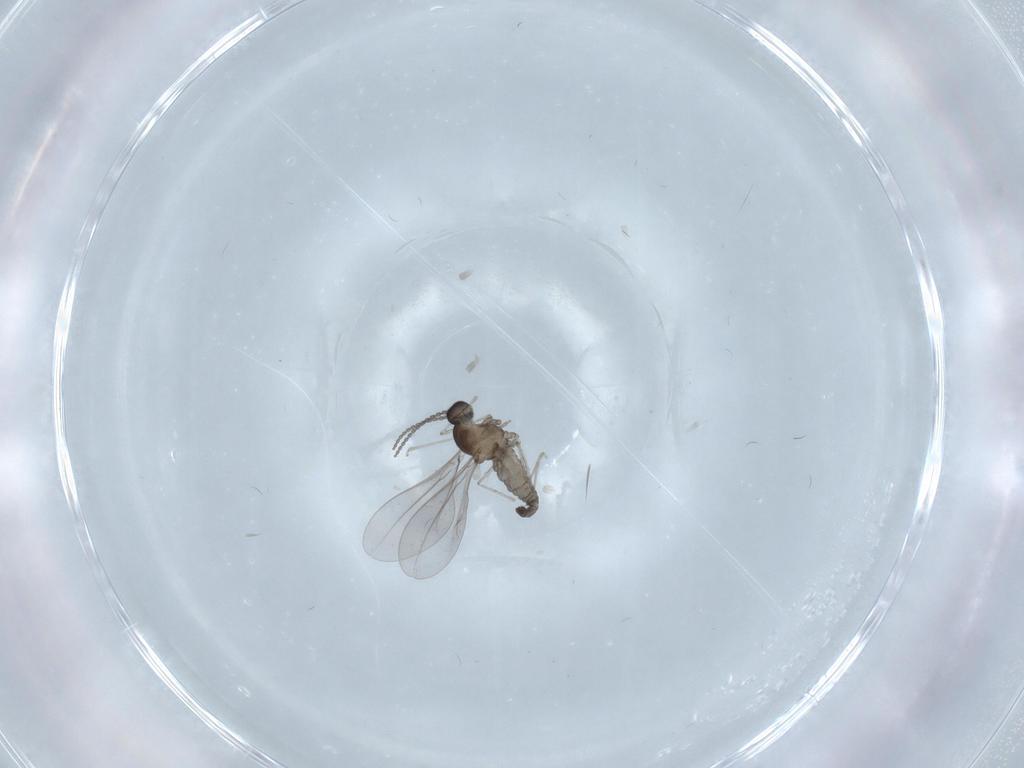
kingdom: Animalia
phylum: Arthropoda
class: Insecta
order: Diptera
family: Cecidomyiidae
